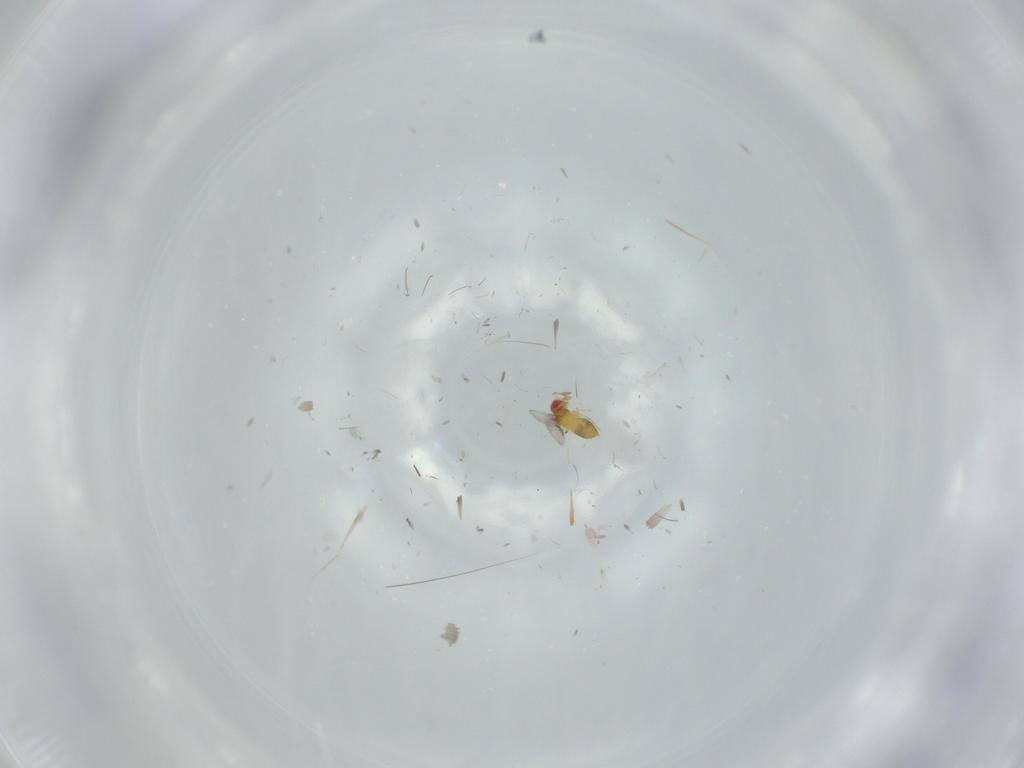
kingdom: Animalia
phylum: Arthropoda
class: Insecta
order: Hymenoptera
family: Trichogrammatidae
